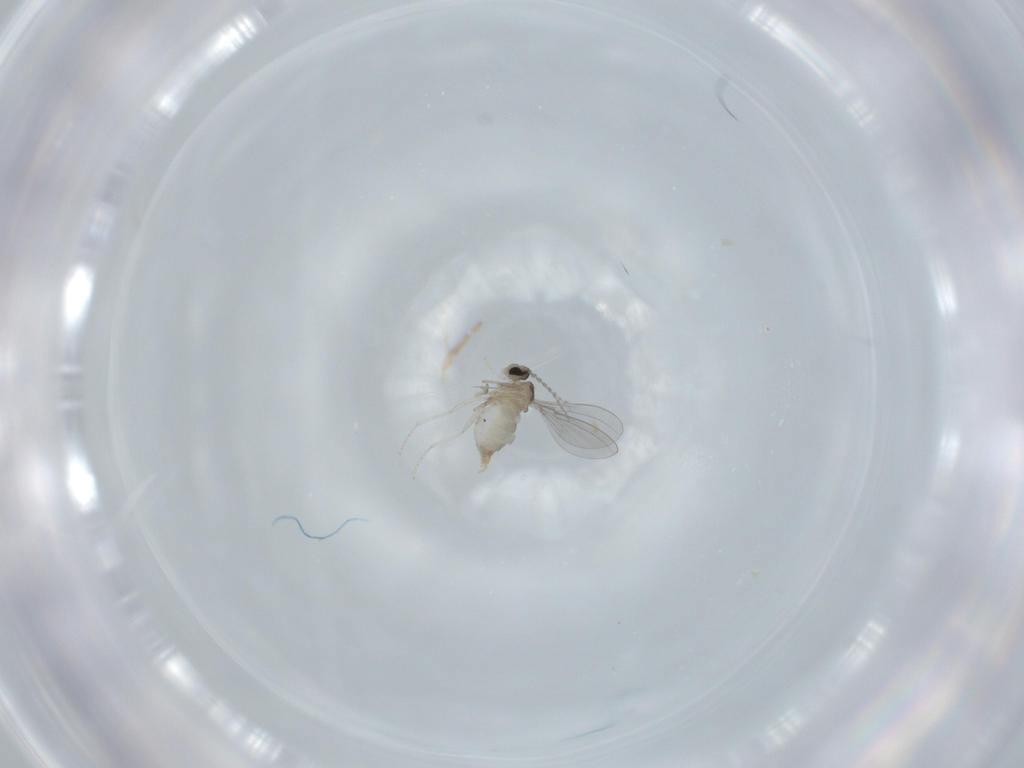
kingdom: Animalia
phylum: Arthropoda
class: Insecta
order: Diptera
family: Cecidomyiidae
